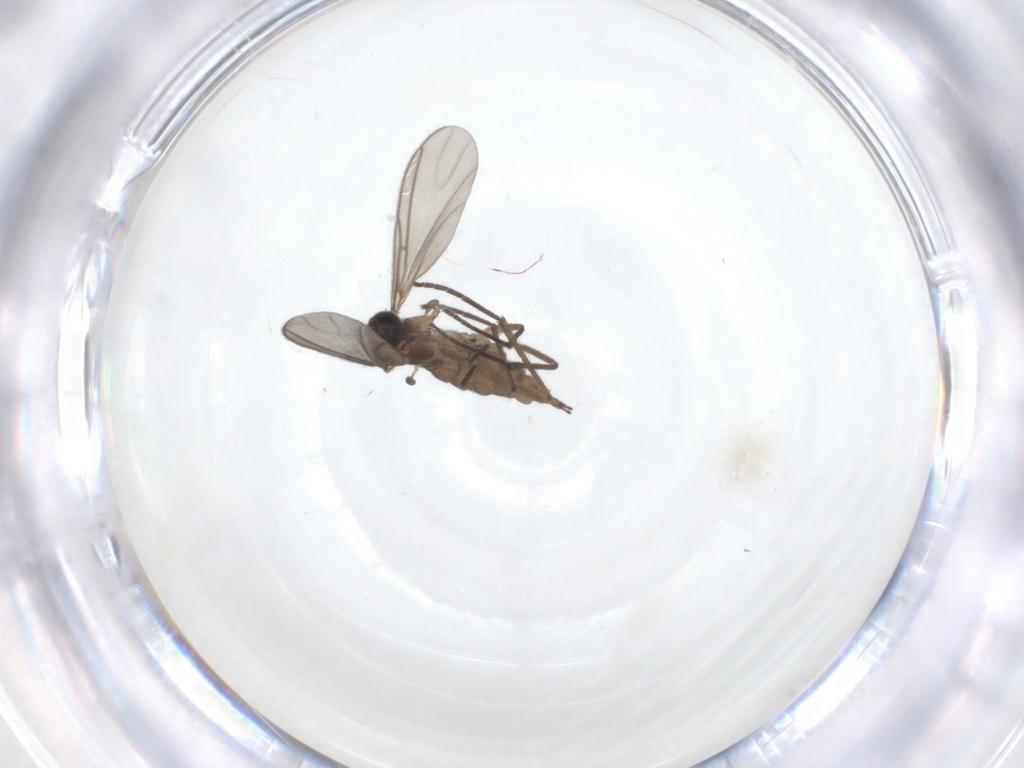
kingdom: Animalia
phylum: Arthropoda
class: Insecta
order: Diptera
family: Sciaridae
